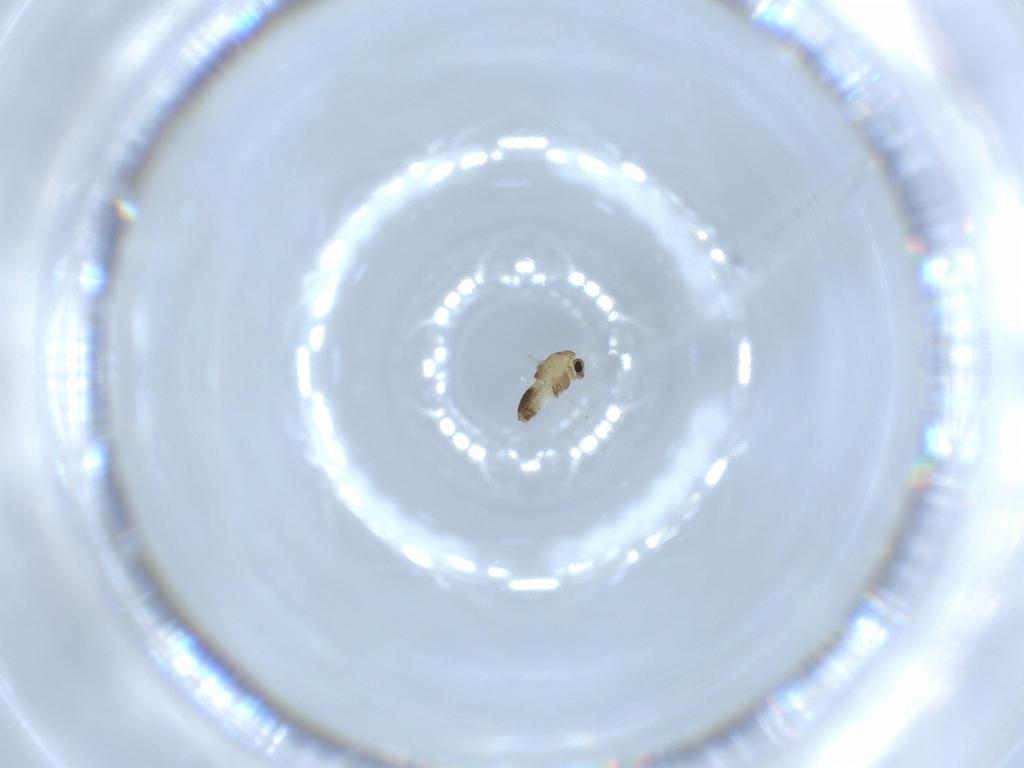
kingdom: Animalia
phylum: Arthropoda
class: Insecta
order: Diptera
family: Chironomidae
